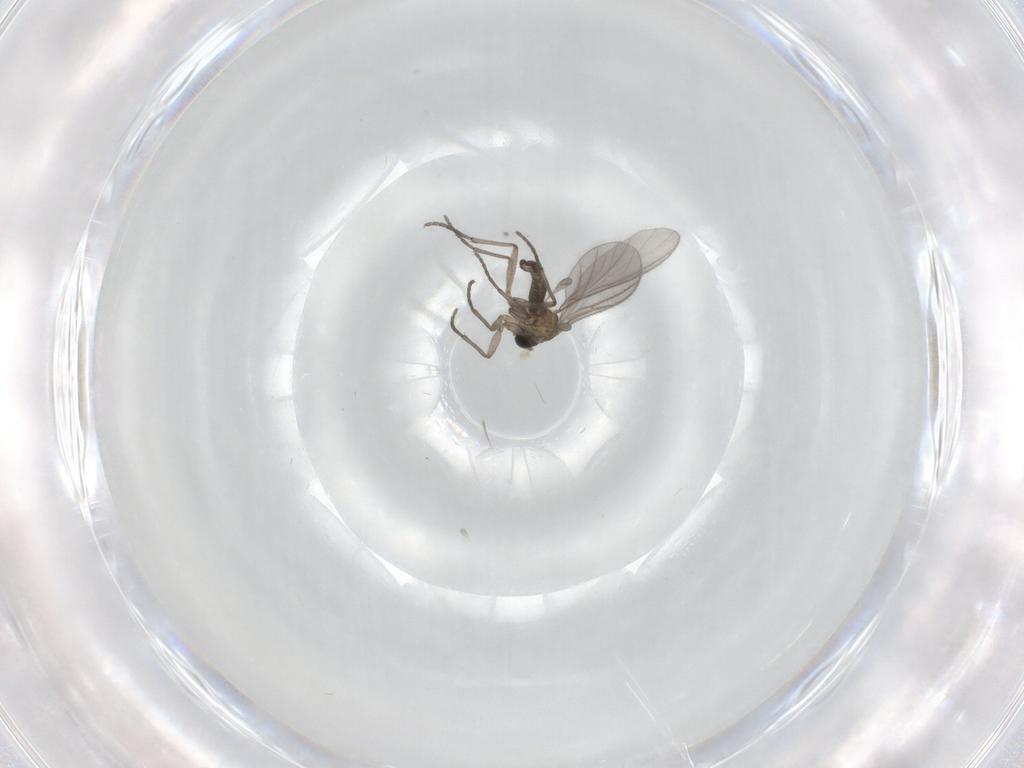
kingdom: Animalia
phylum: Arthropoda
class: Insecta
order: Diptera
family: Sciaridae
